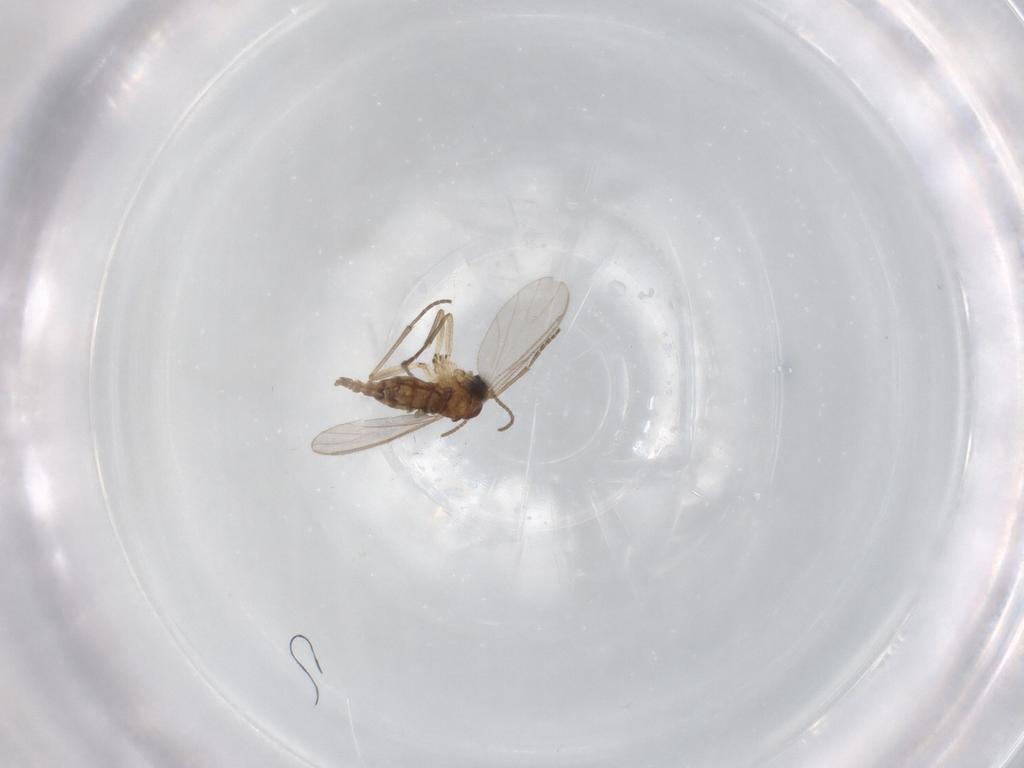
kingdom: Animalia
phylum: Arthropoda
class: Insecta
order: Diptera
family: Sciaridae
